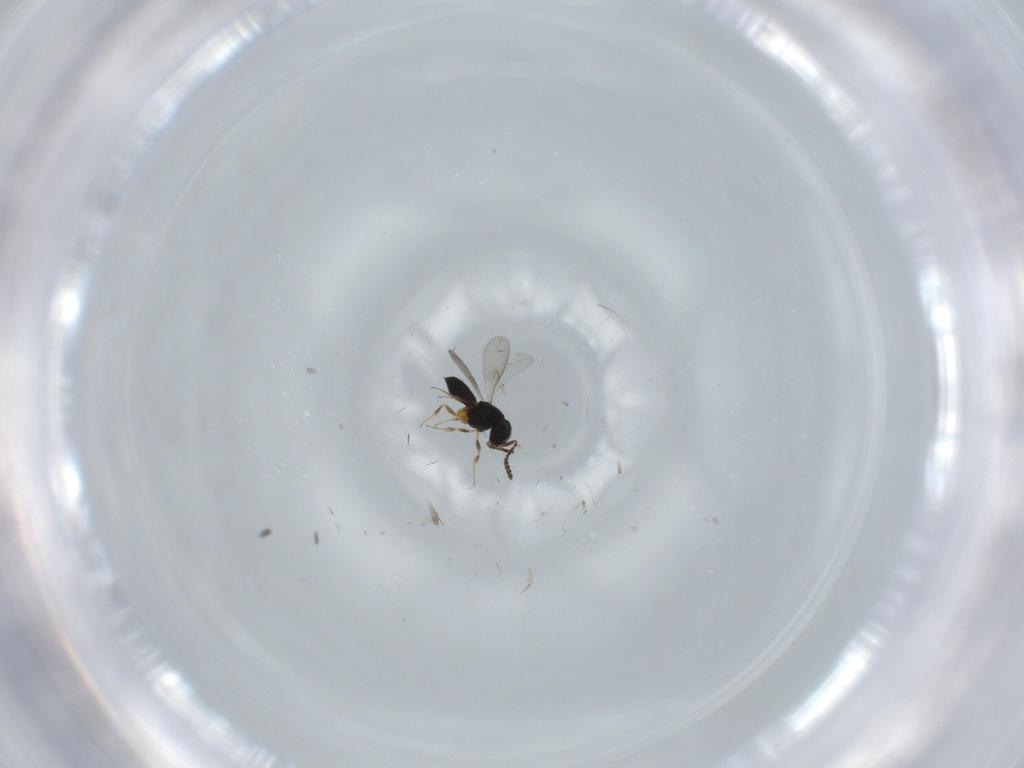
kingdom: Animalia
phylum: Arthropoda
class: Insecta
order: Hymenoptera
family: Scelionidae
